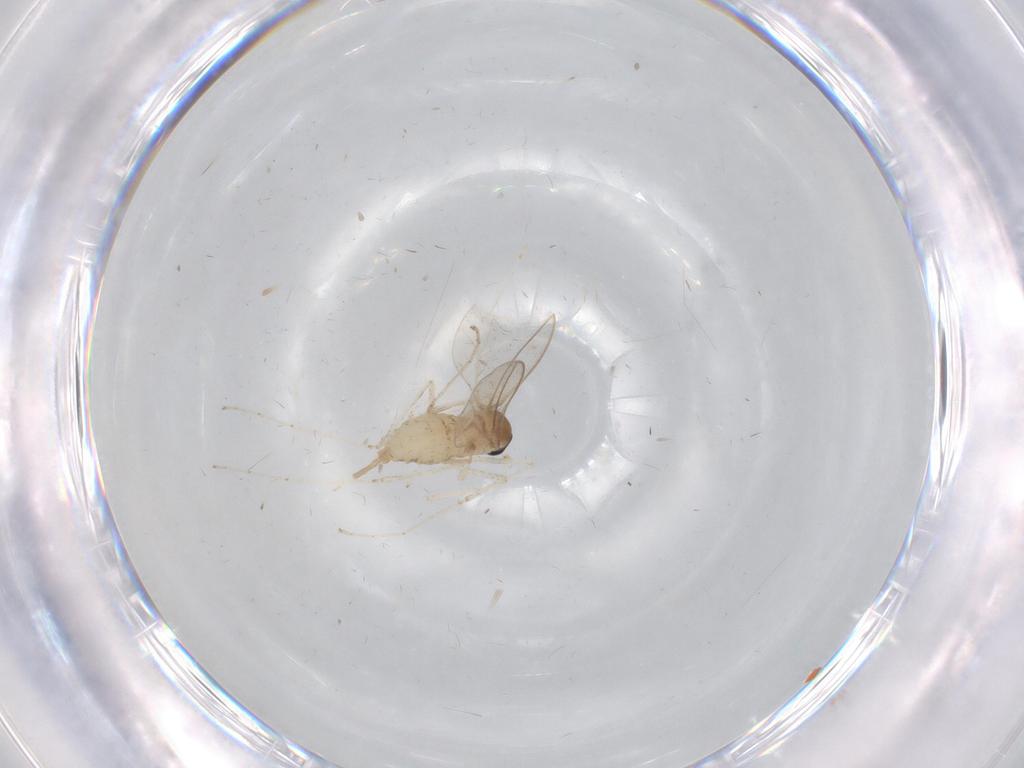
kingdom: Animalia
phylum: Arthropoda
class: Insecta
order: Diptera
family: Cecidomyiidae
